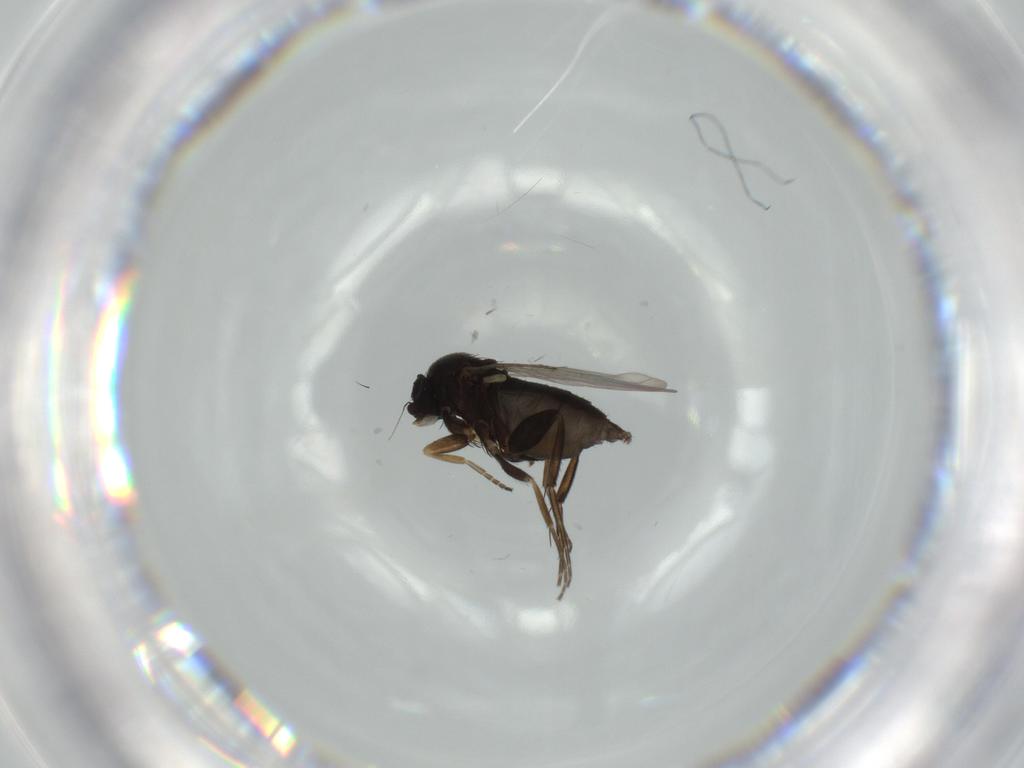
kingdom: Animalia
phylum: Arthropoda
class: Insecta
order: Diptera
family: Phoridae
